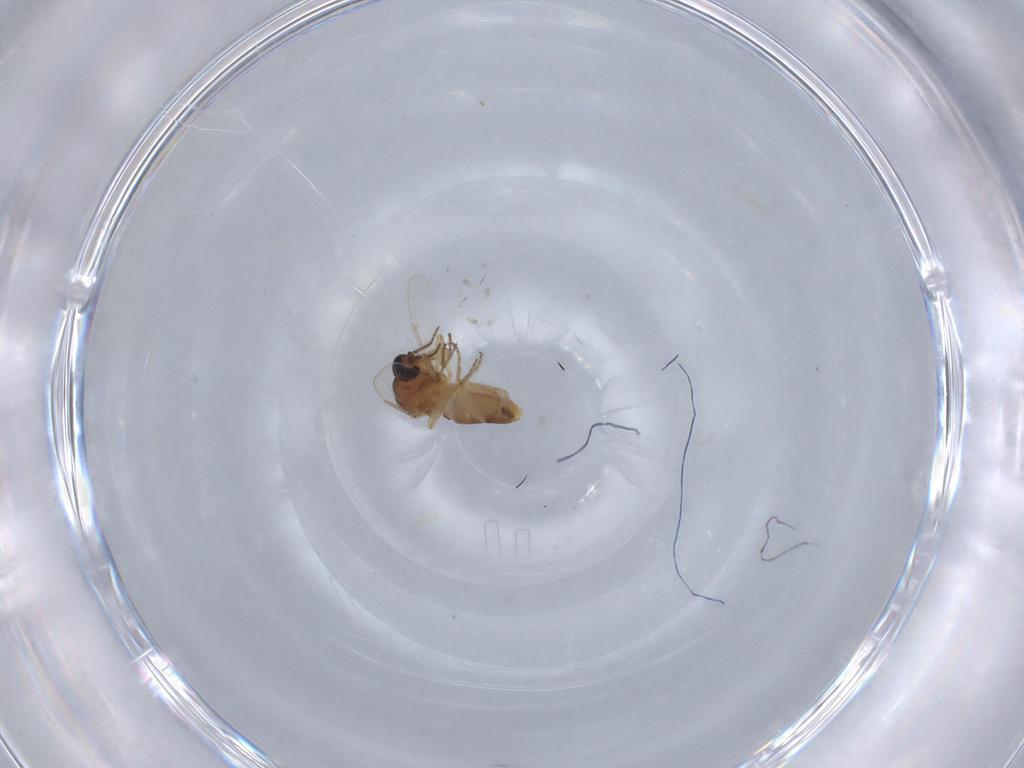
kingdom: Animalia
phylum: Arthropoda
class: Insecta
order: Diptera
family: Ceratopogonidae
